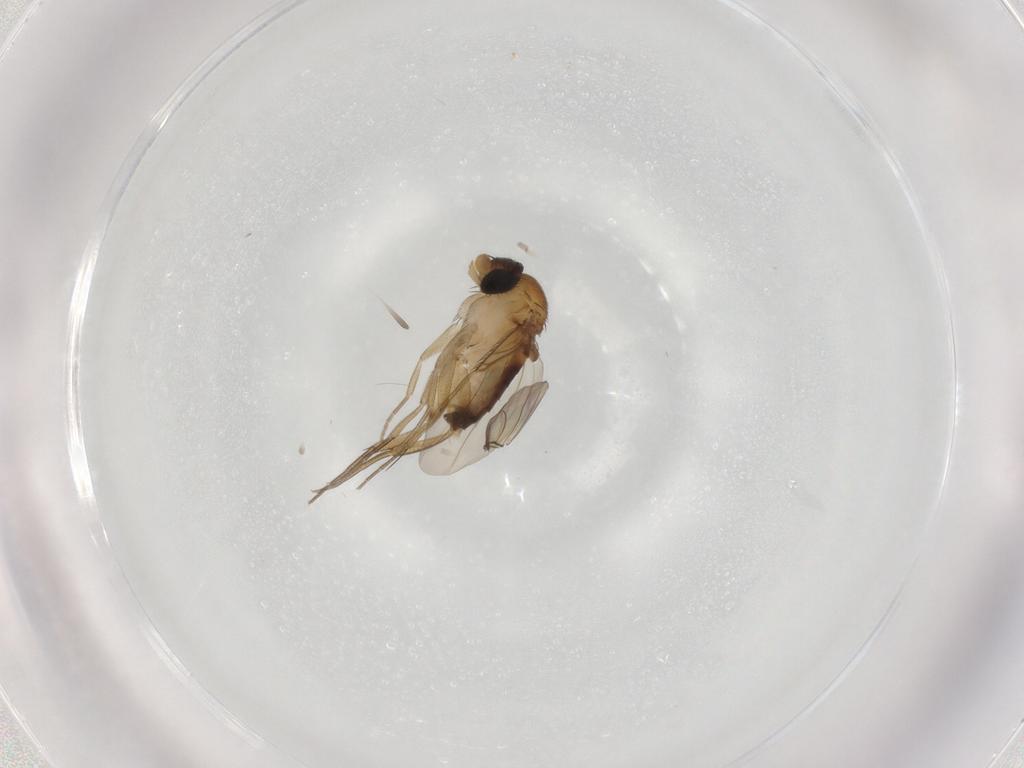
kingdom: Animalia
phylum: Arthropoda
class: Insecta
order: Diptera
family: Phoridae
